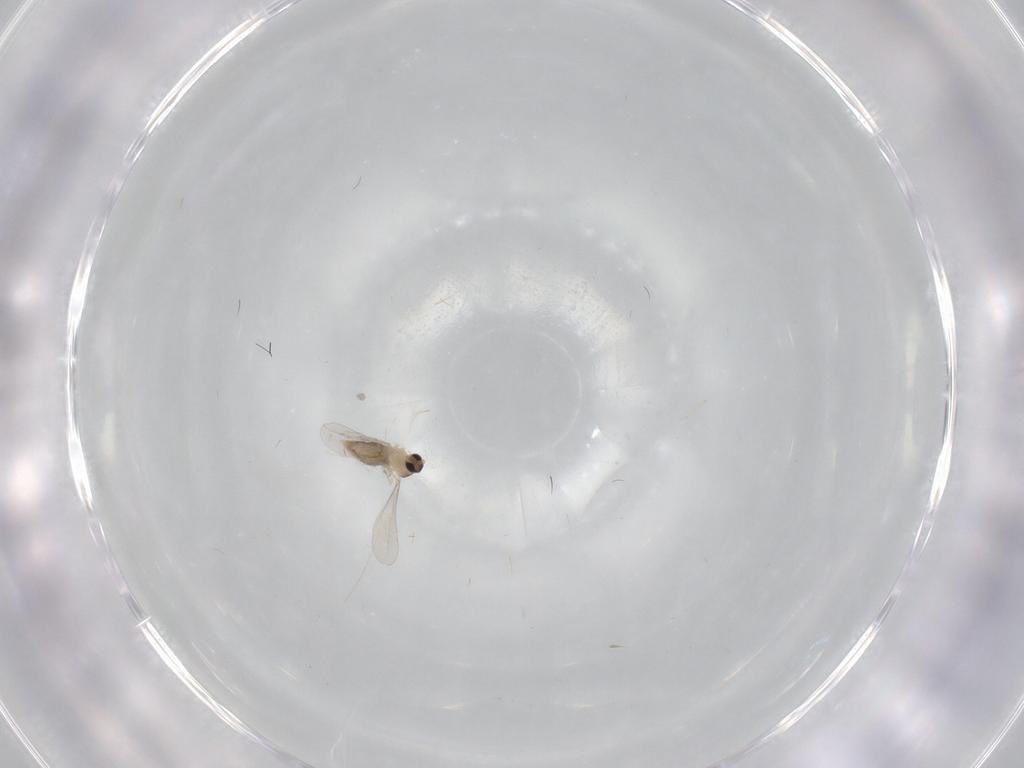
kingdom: Animalia
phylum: Arthropoda
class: Insecta
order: Diptera
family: Cecidomyiidae
